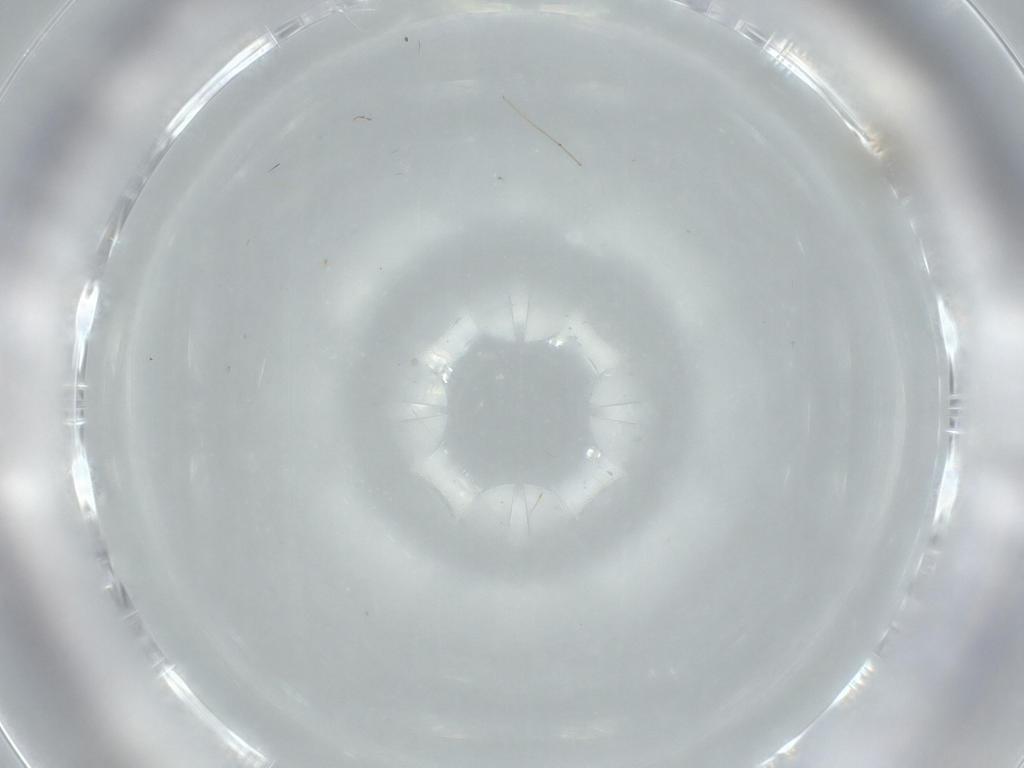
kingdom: Animalia
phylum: Arthropoda
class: Insecta
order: Diptera
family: Cecidomyiidae
